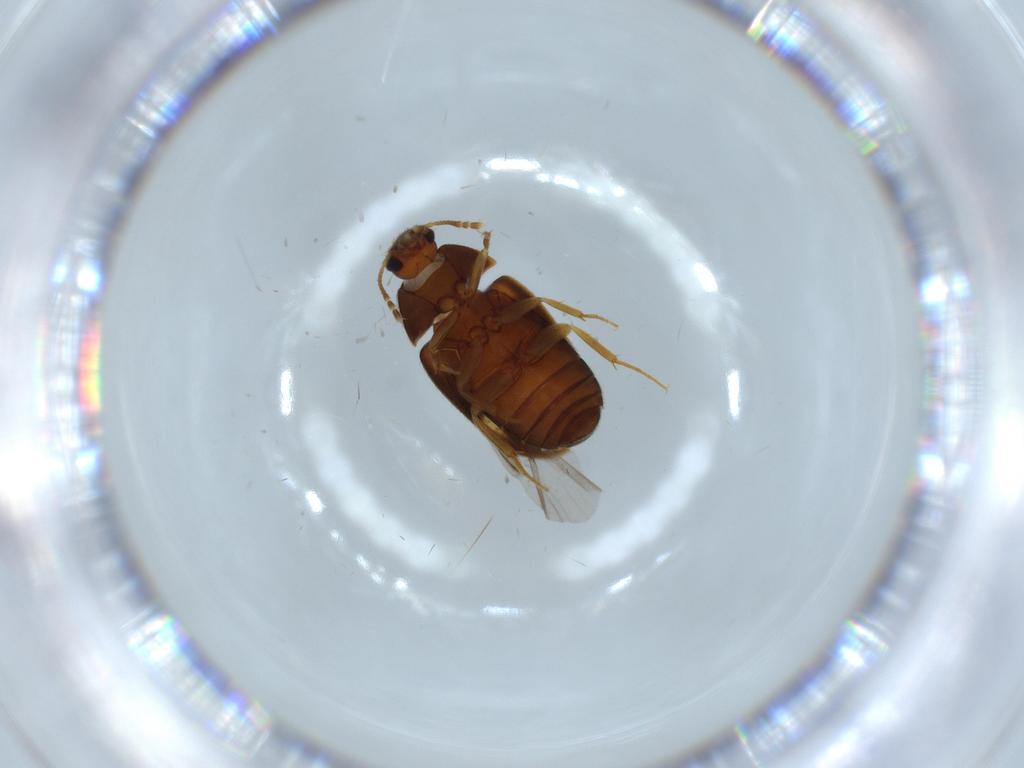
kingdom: Animalia
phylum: Arthropoda
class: Insecta
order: Coleoptera
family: Mycetophagidae
